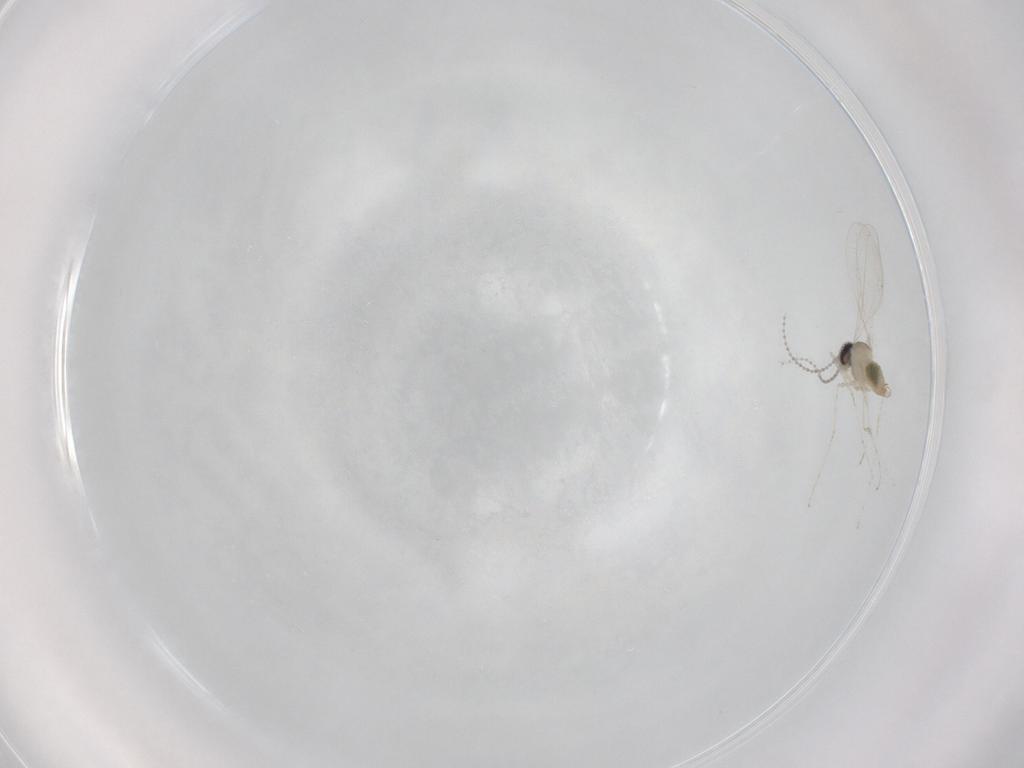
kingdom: Animalia
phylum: Arthropoda
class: Insecta
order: Diptera
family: Cecidomyiidae
